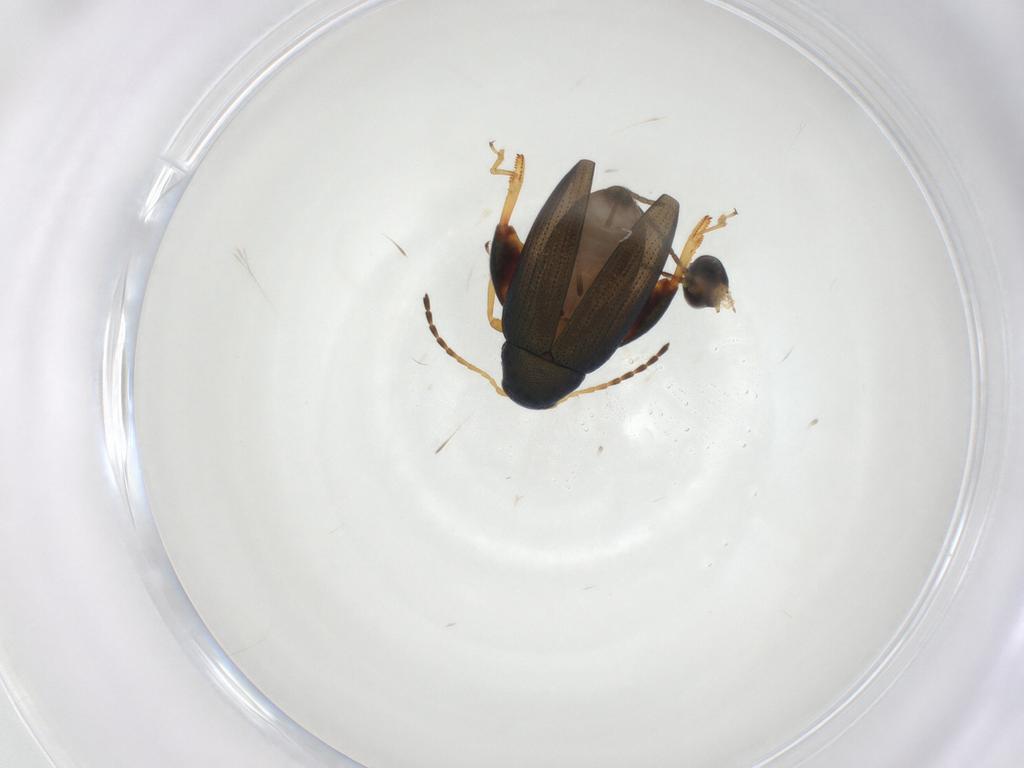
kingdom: Animalia
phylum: Arthropoda
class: Insecta
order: Coleoptera
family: Chrysomelidae
